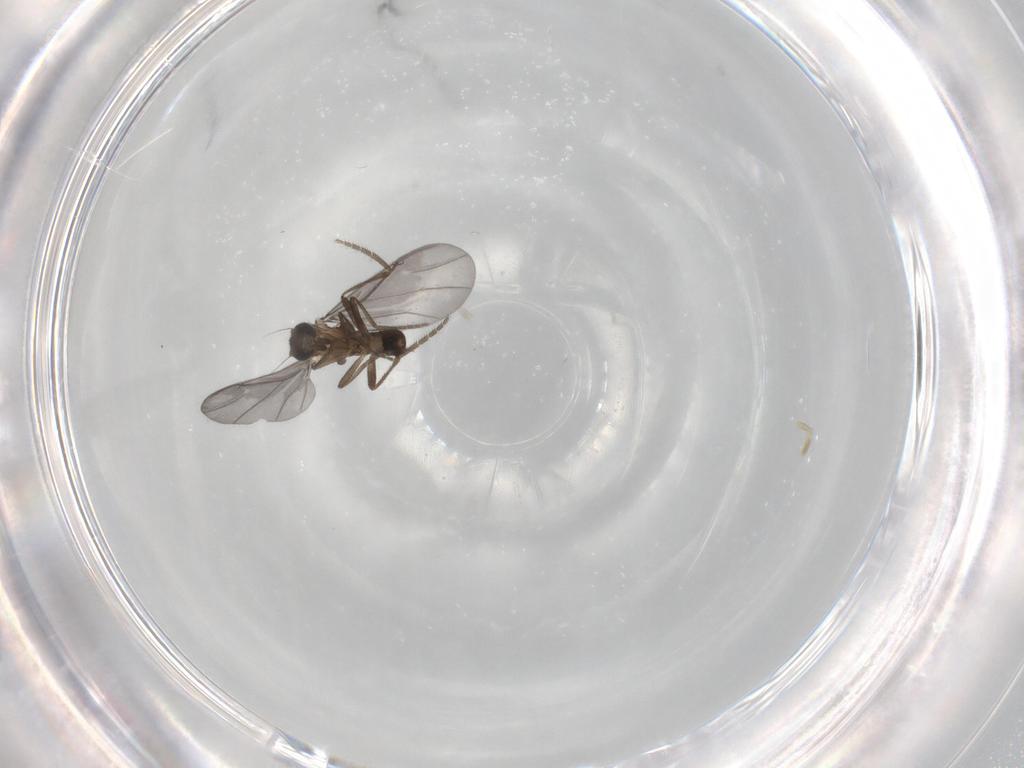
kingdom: Animalia
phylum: Arthropoda
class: Insecta
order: Diptera
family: Phoridae
